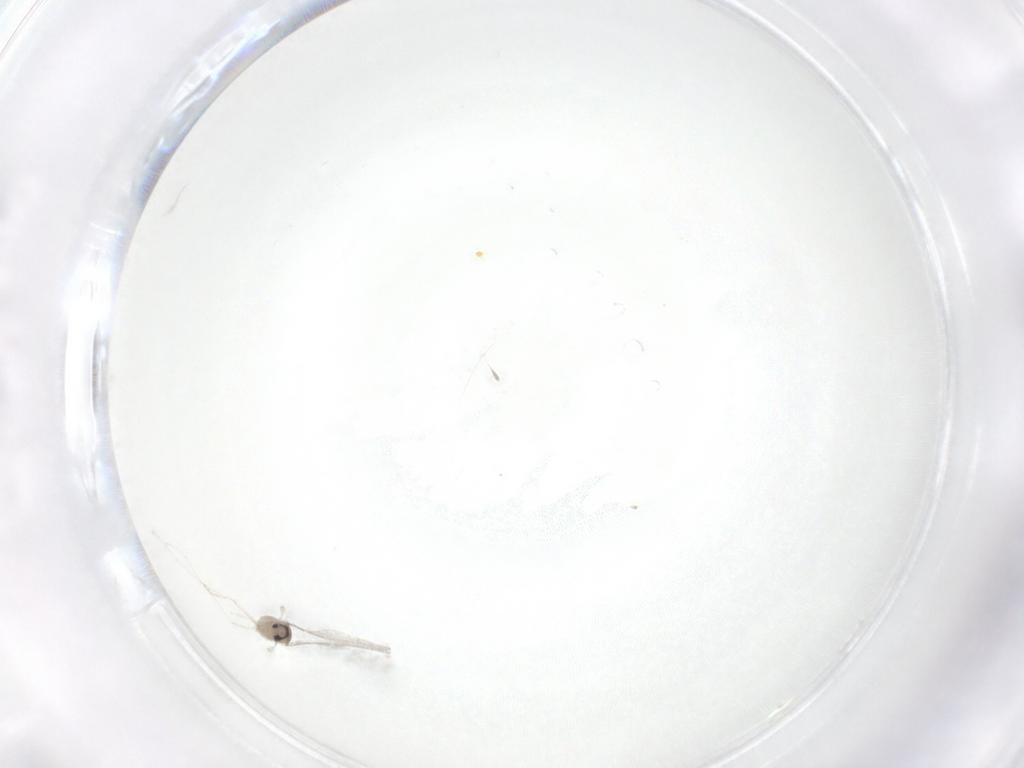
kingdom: Animalia
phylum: Arthropoda
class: Insecta
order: Diptera
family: Cecidomyiidae
